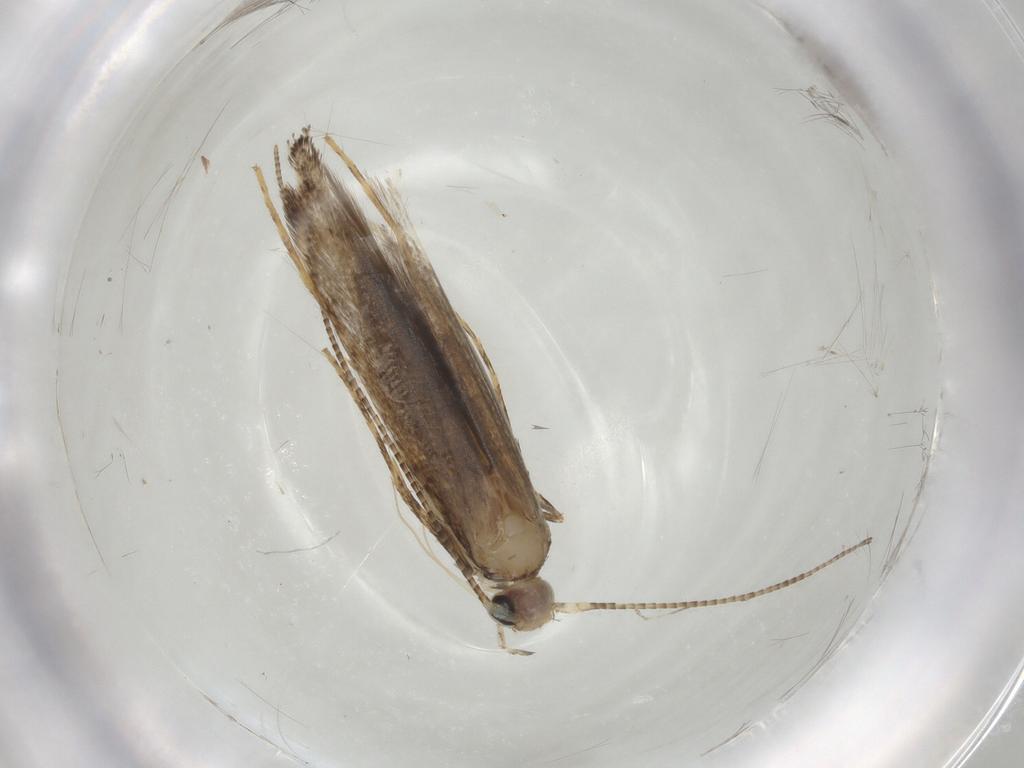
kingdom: Animalia
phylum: Arthropoda
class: Insecta
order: Lepidoptera
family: Gracillariidae
